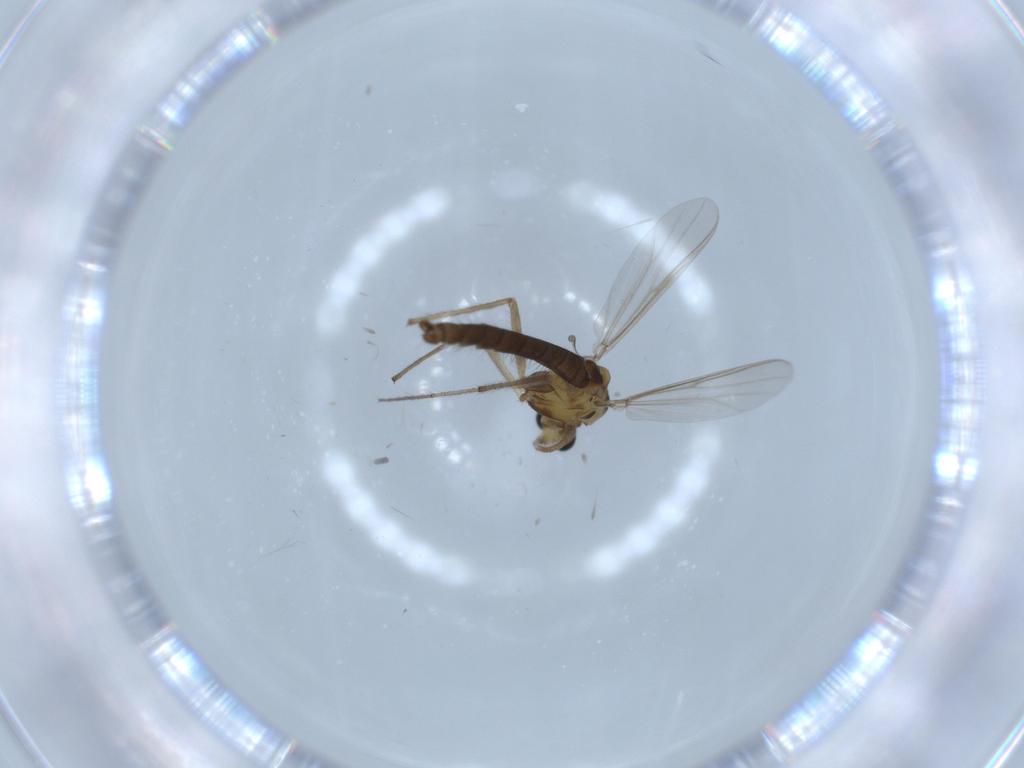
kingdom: Animalia
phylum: Arthropoda
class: Insecta
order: Diptera
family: Chironomidae
